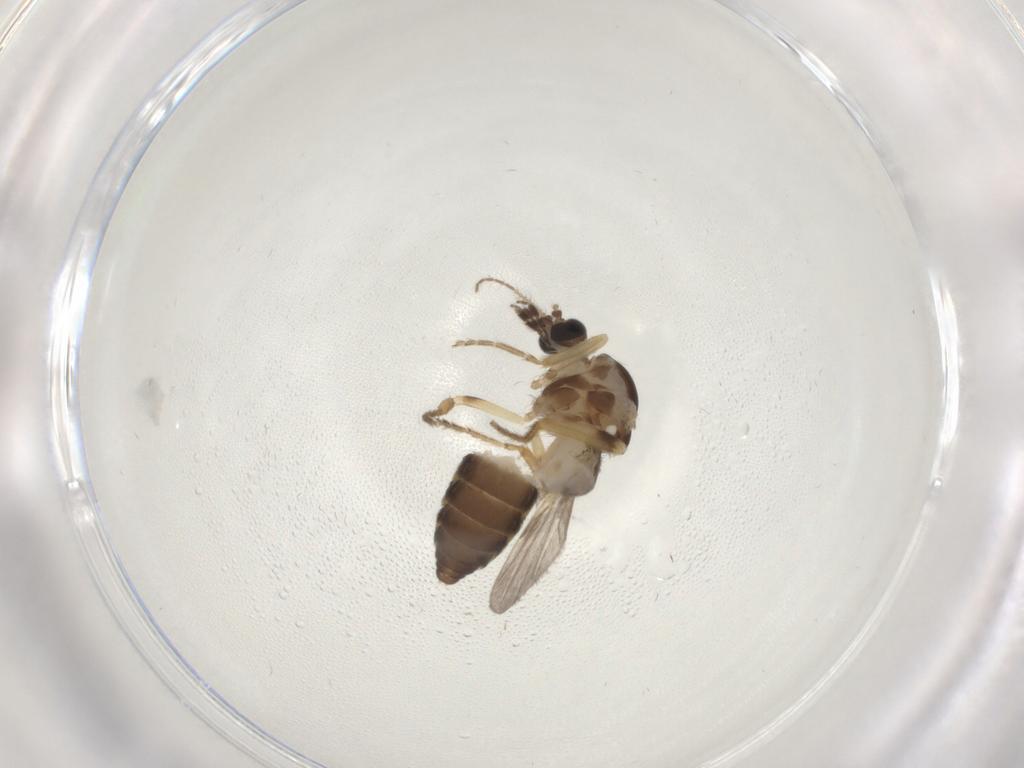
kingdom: Animalia
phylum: Arthropoda
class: Insecta
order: Diptera
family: Ceratopogonidae
